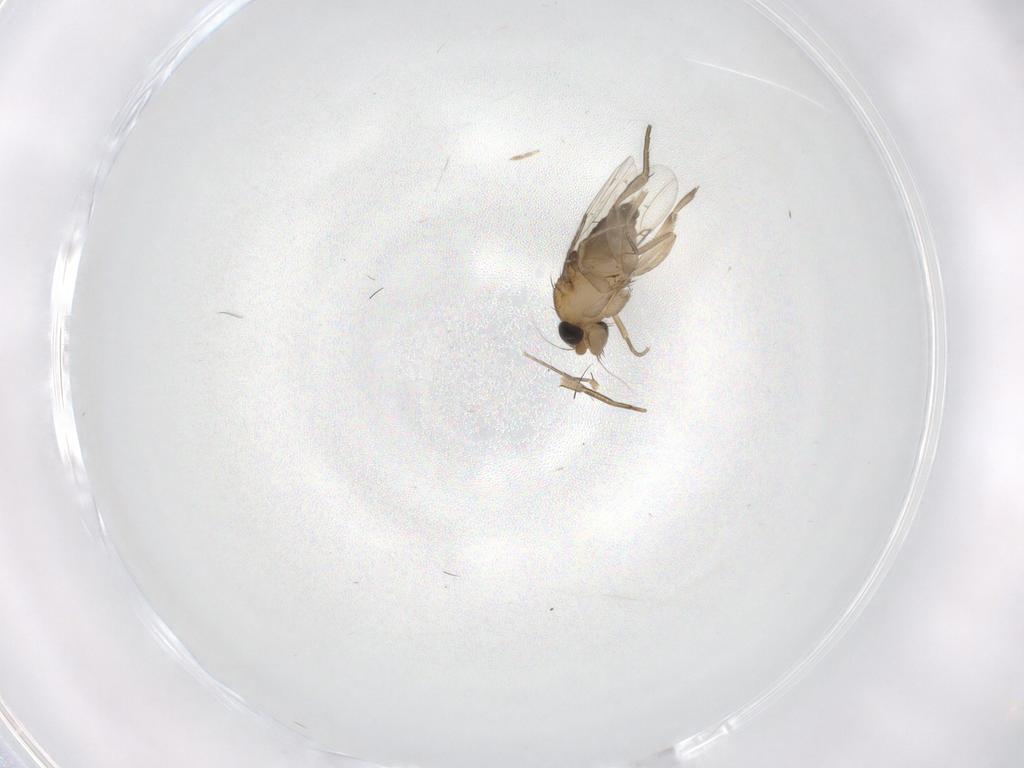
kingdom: Animalia
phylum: Arthropoda
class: Insecta
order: Diptera
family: Phoridae
